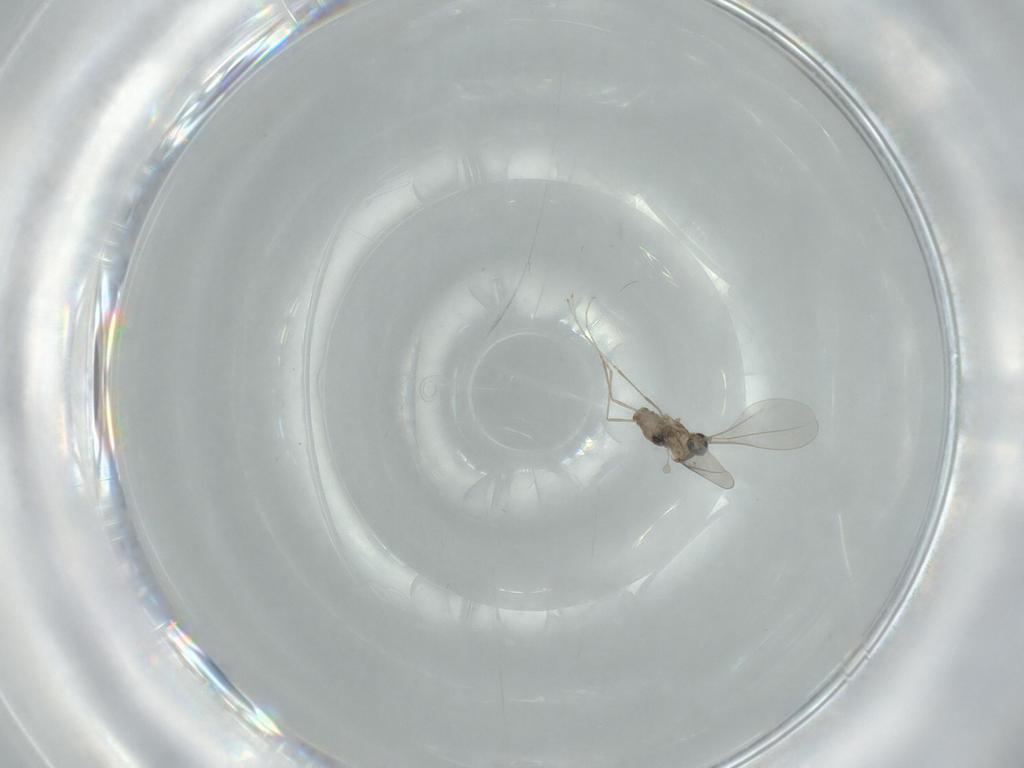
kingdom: Animalia
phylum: Arthropoda
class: Insecta
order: Diptera
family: Cecidomyiidae
